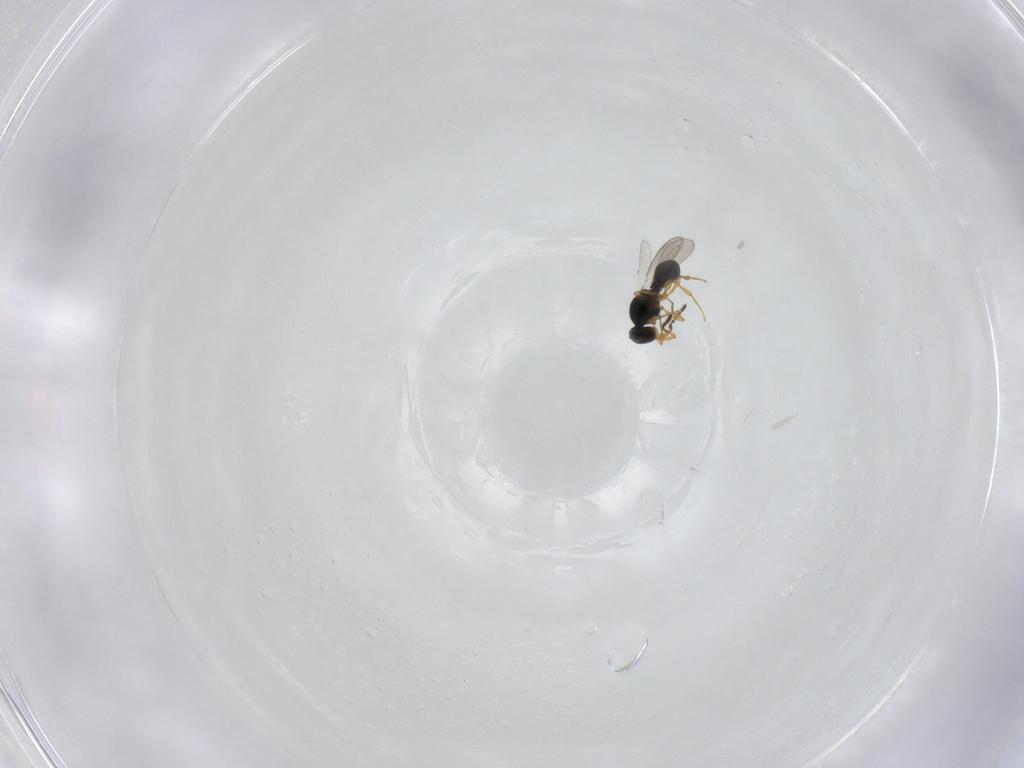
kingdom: Animalia
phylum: Arthropoda
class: Insecta
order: Hymenoptera
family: Platygastridae
